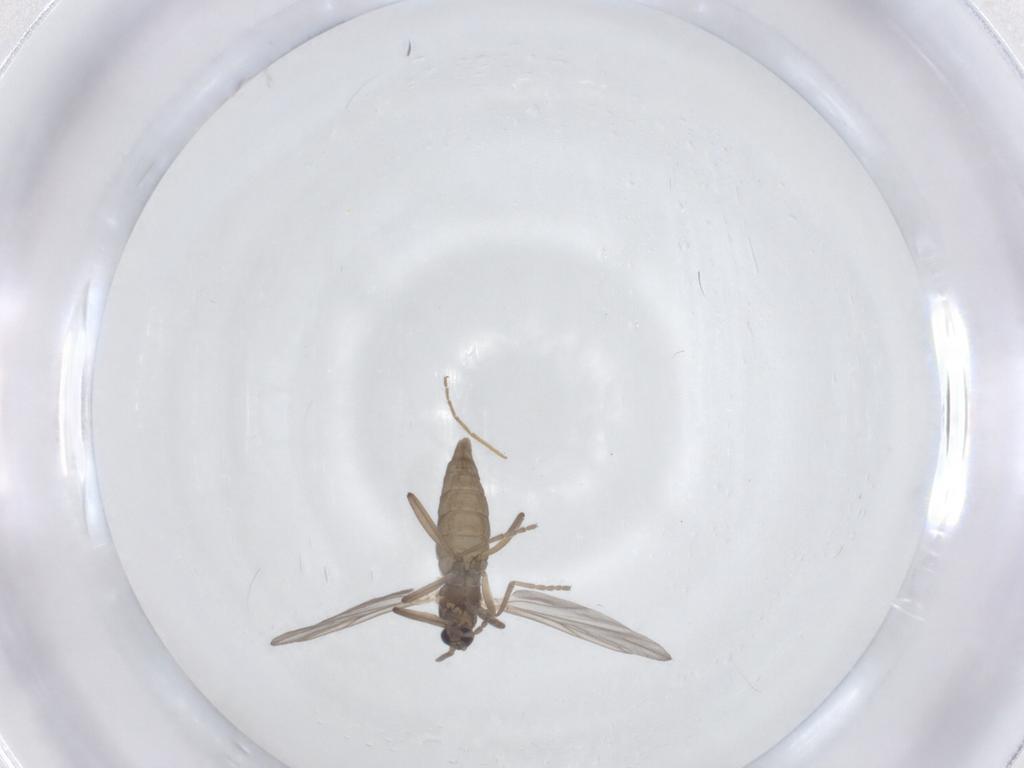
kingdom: Animalia
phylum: Arthropoda
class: Insecta
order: Diptera
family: Cecidomyiidae
